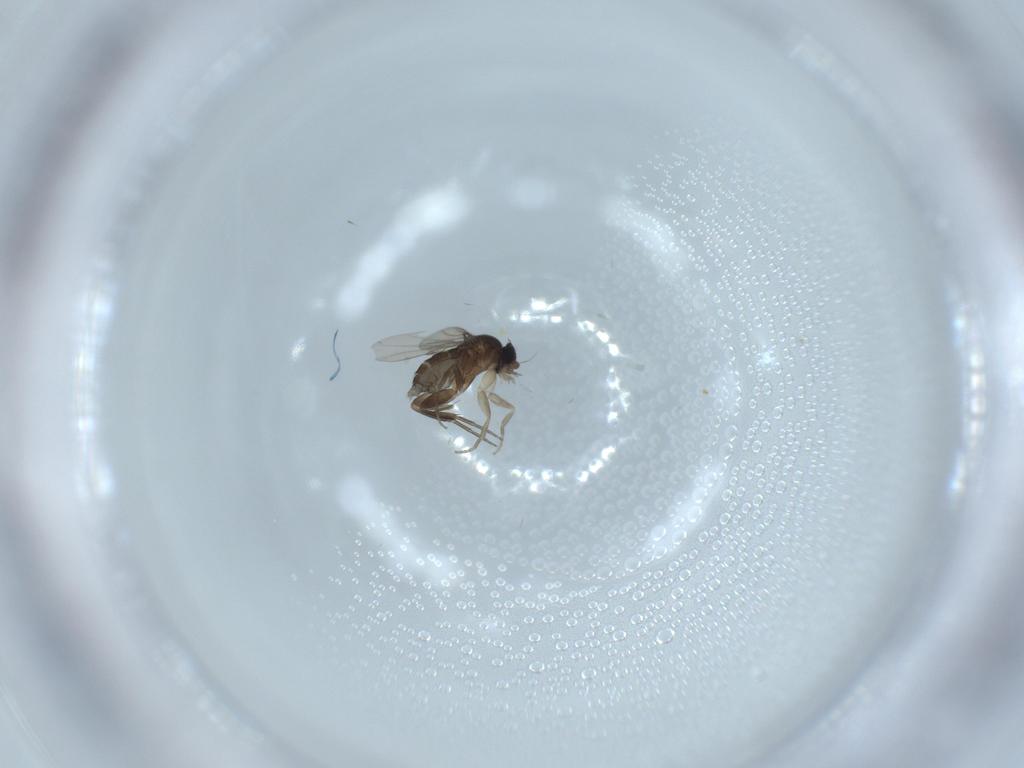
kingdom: Animalia
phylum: Arthropoda
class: Insecta
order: Diptera
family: Phoridae
